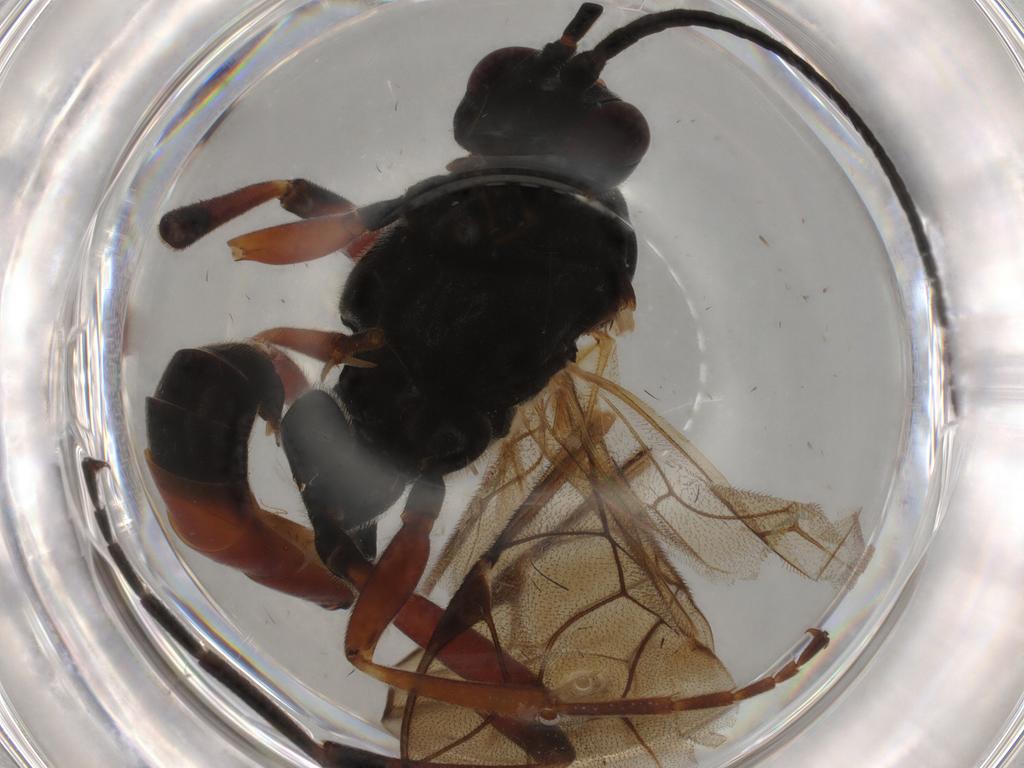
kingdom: Animalia
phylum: Arthropoda
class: Insecta
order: Hymenoptera
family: Ichneumonidae
